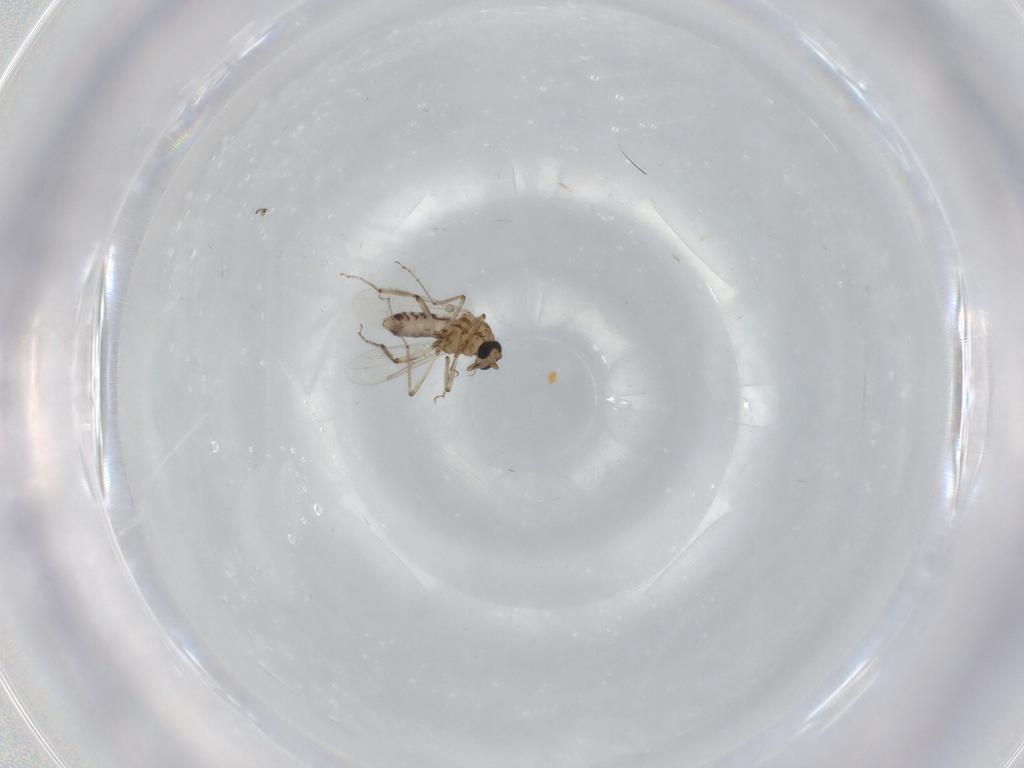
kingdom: Animalia
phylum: Arthropoda
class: Insecta
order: Diptera
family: Ceratopogonidae
